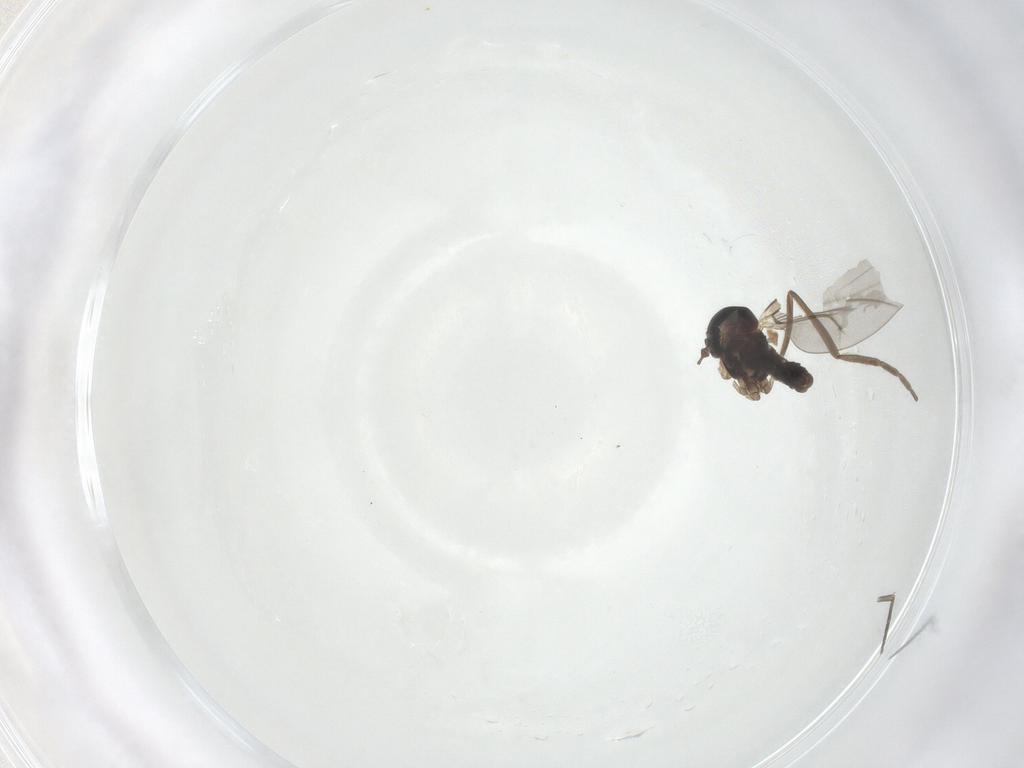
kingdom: Animalia
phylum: Arthropoda
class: Insecta
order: Diptera
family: Cecidomyiidae
